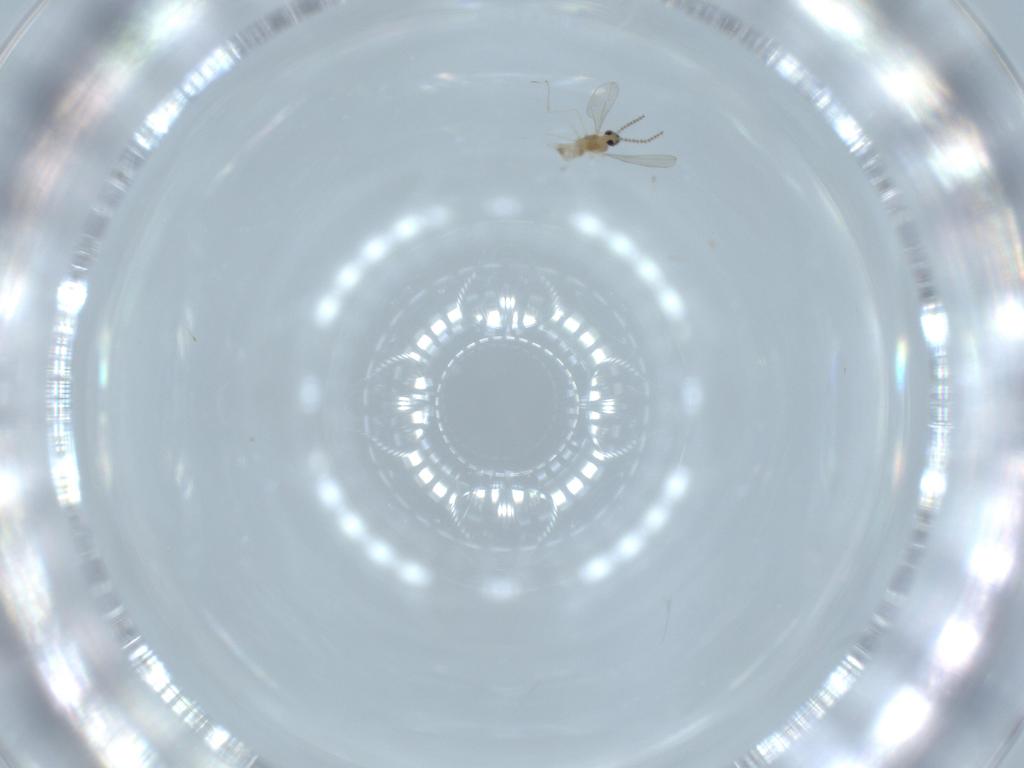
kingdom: Animalia
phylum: Arthropoda
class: Insecta
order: Diptera
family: Cecidomyiidae
